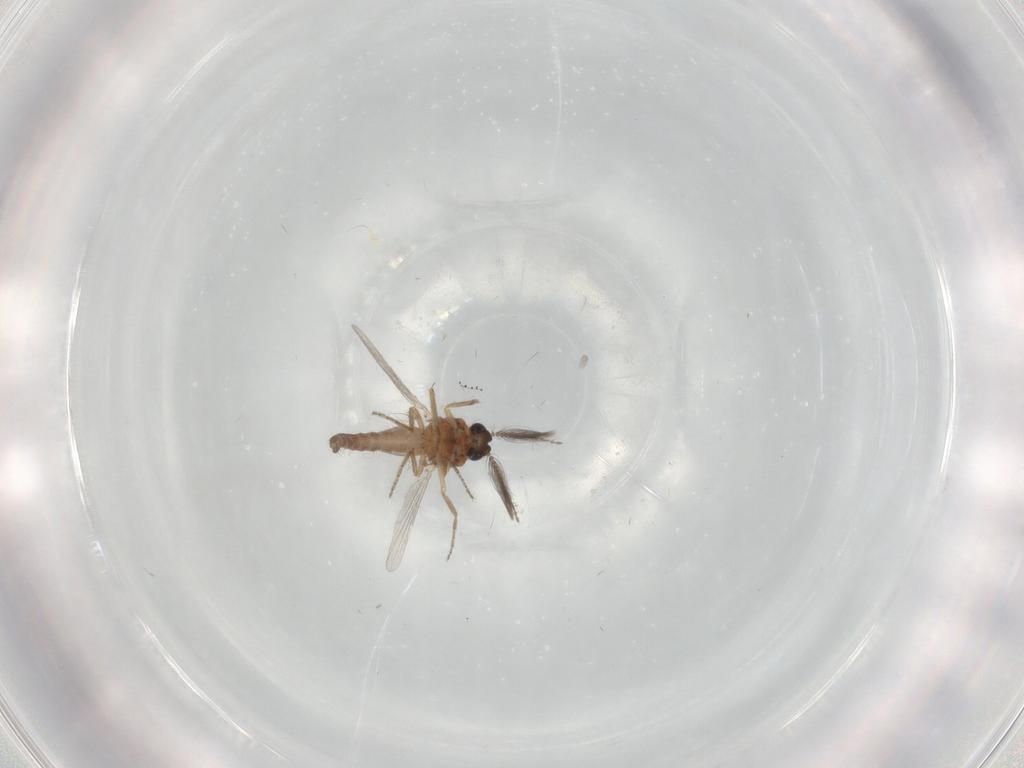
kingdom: Animalia
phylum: Arthropoda
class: Insecta
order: Diptera
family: Ceratopogonidae
